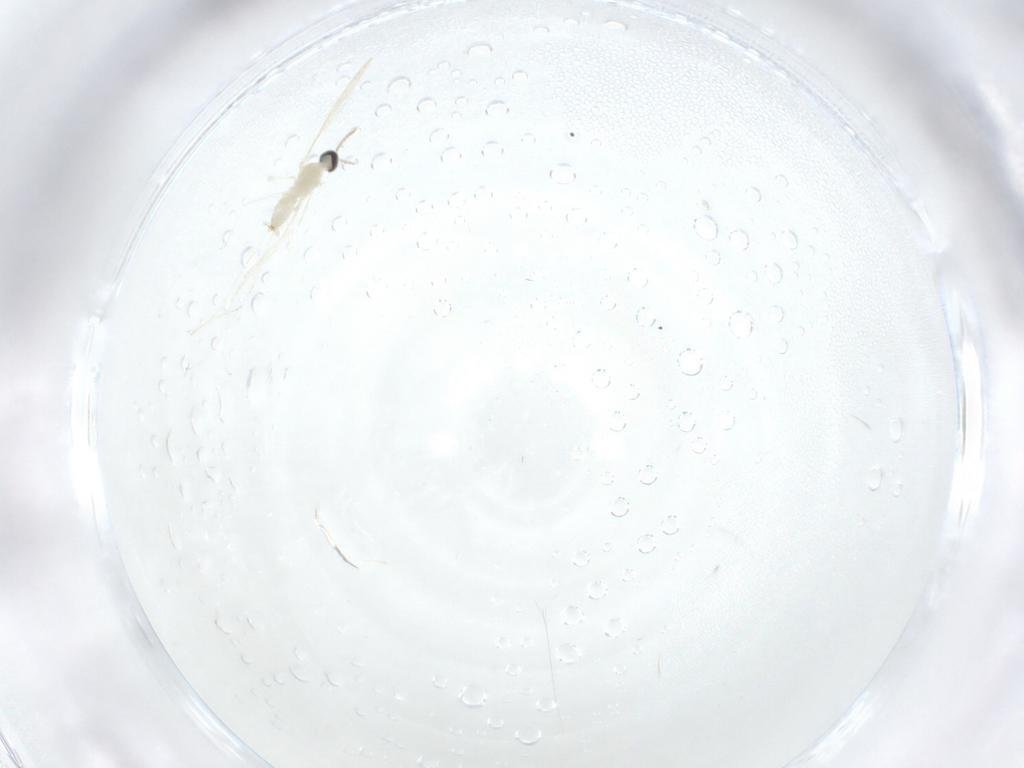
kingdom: Animalia
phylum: Arthropoda
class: Insecta
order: Diptera
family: Cecidomyiidae
